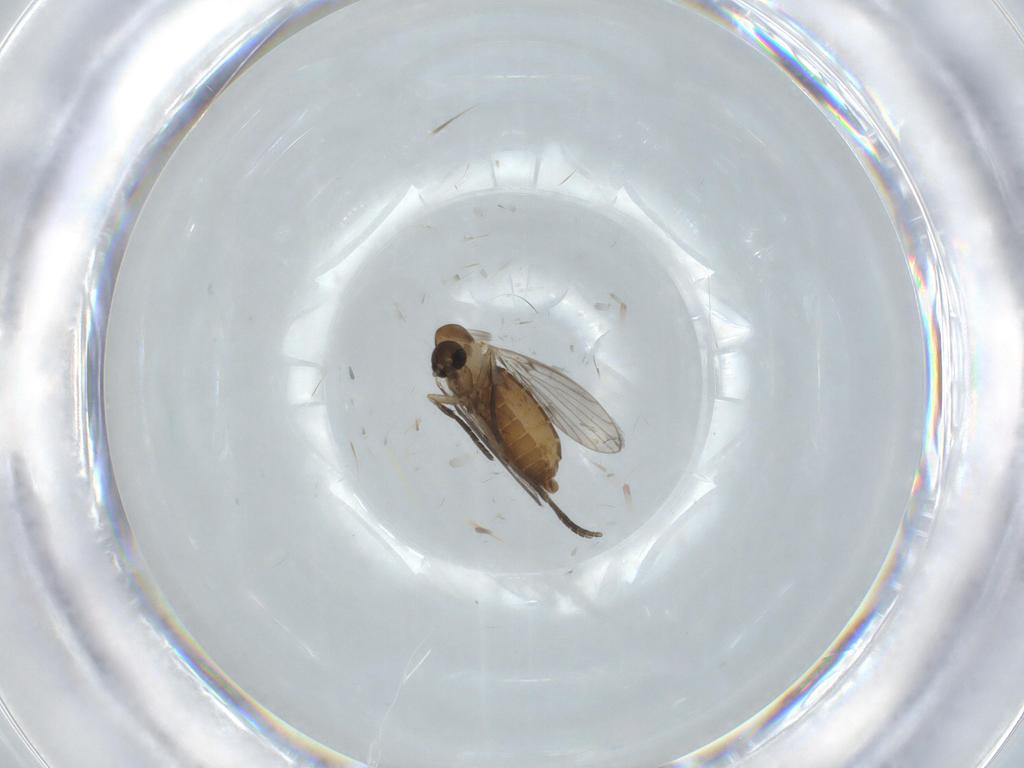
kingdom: Animalia
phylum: Arthropoda
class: Insecta
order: Diptera
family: Psychodidae
